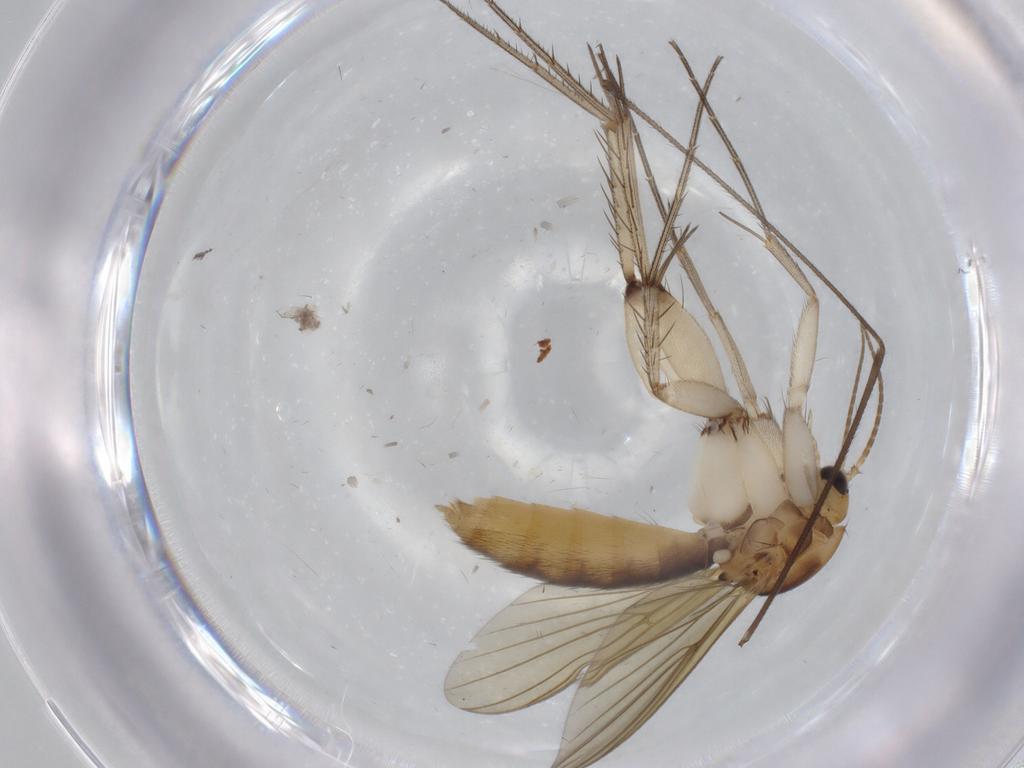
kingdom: Animalia
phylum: Arthropoda
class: Insecta
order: Diptera
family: Limoniidae
